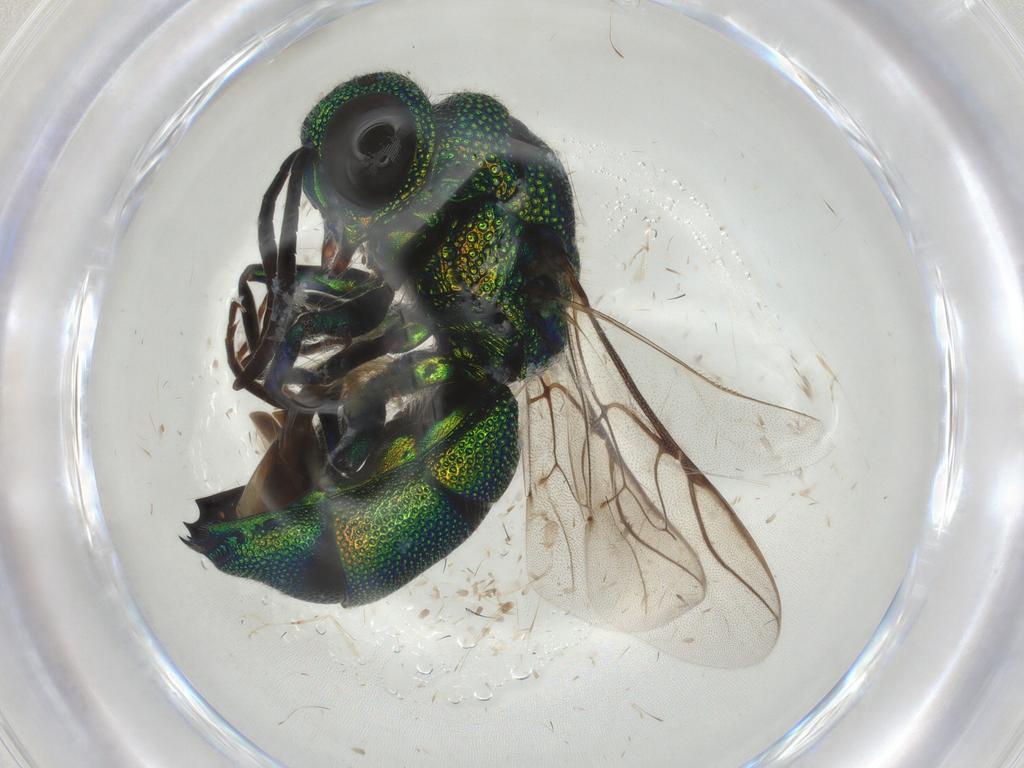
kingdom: Animalia
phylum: Arthropoda
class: Insecta
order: Hymenoptera
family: Chrysididae
